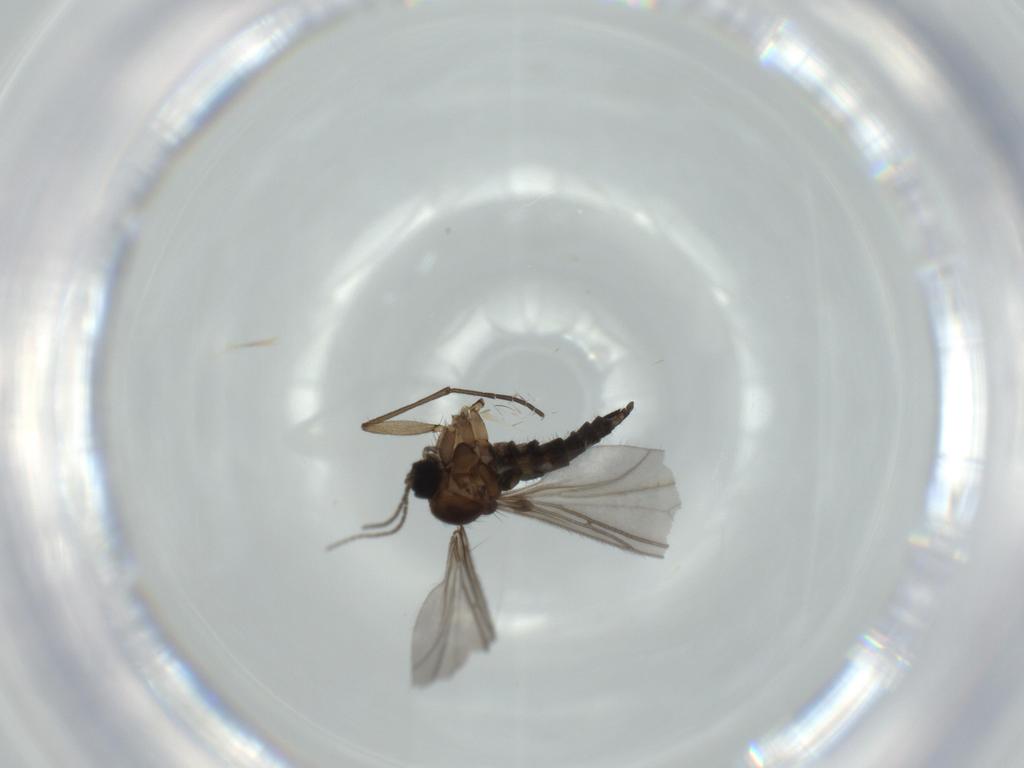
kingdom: Animalia
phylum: Arthropoda
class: Insecta
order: Diptera
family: Sciaridae
